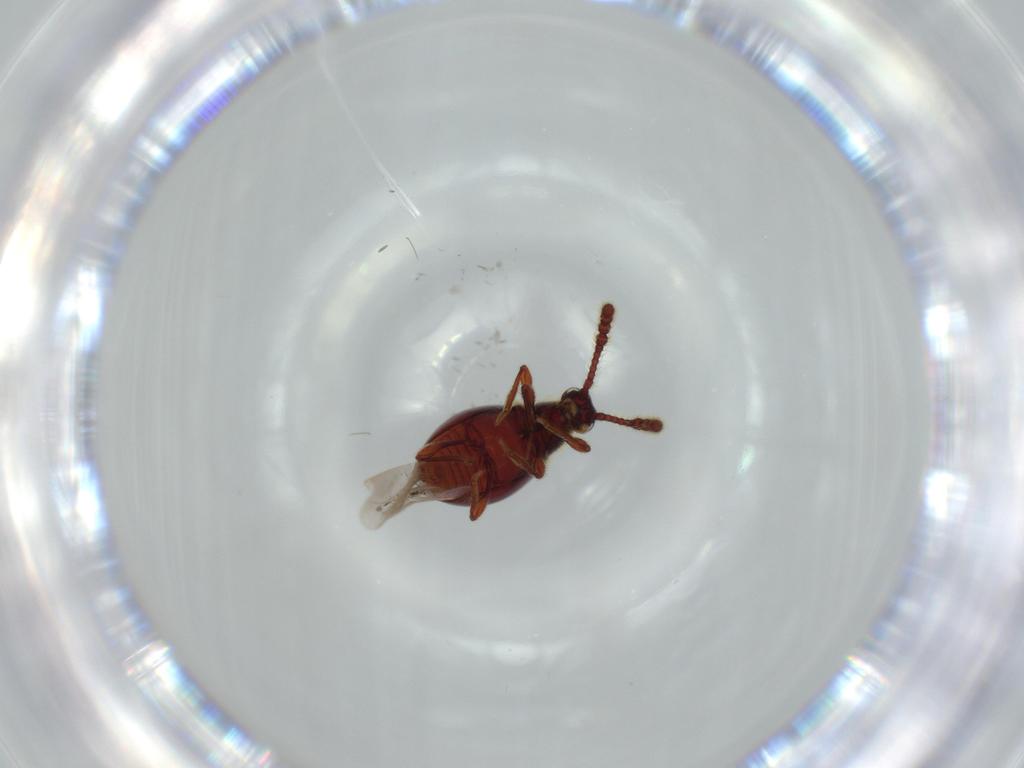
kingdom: Animalia
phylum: Arthropoda
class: Insecta
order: Coleoptera
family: Staphylinidae
